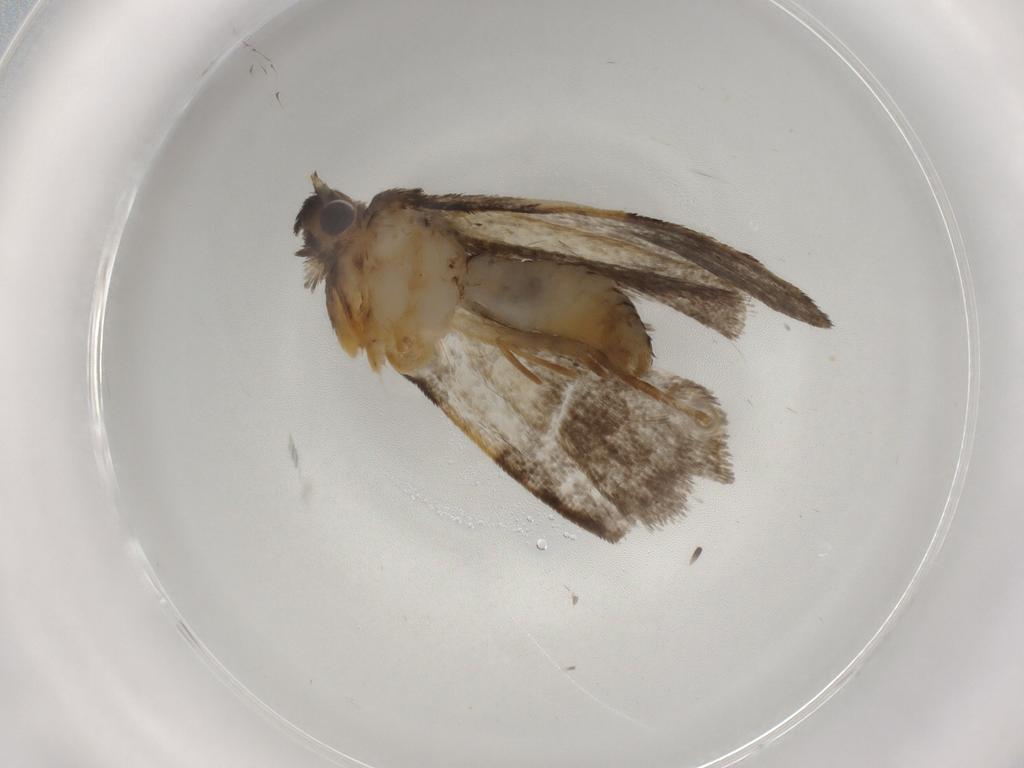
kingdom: Animalia
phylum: Arthropoda
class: Insecta
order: Lepidoptera
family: Psychidae
